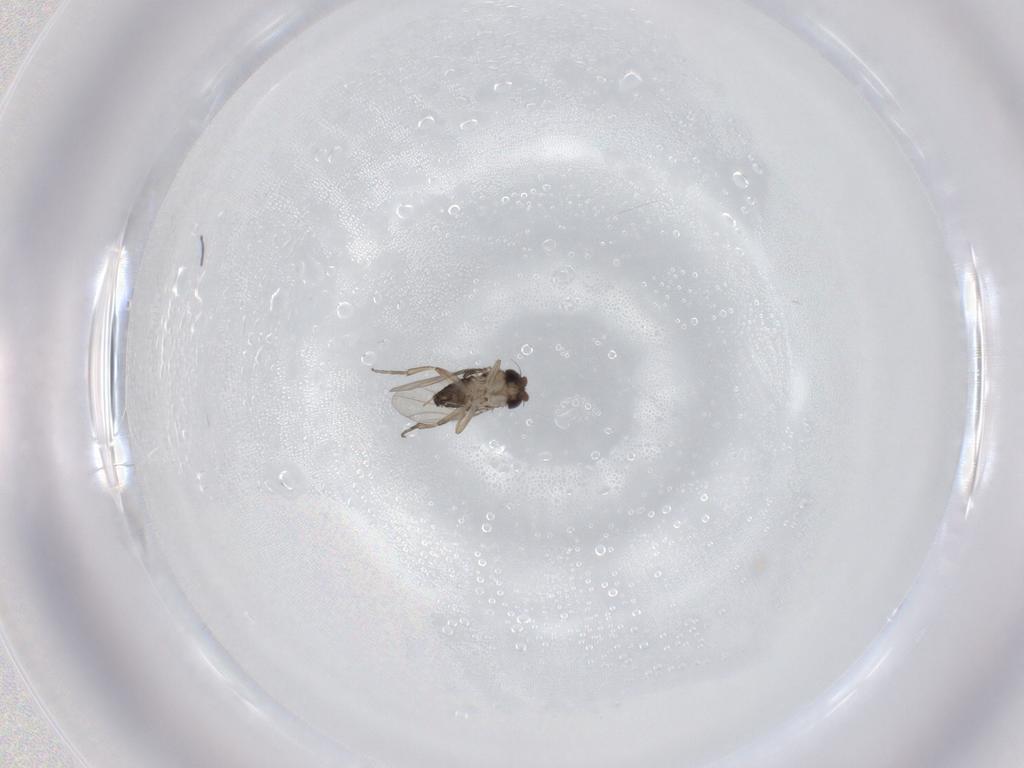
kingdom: Animalia
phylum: Arthropoda
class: Insecta
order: Diptera
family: Phoridae
